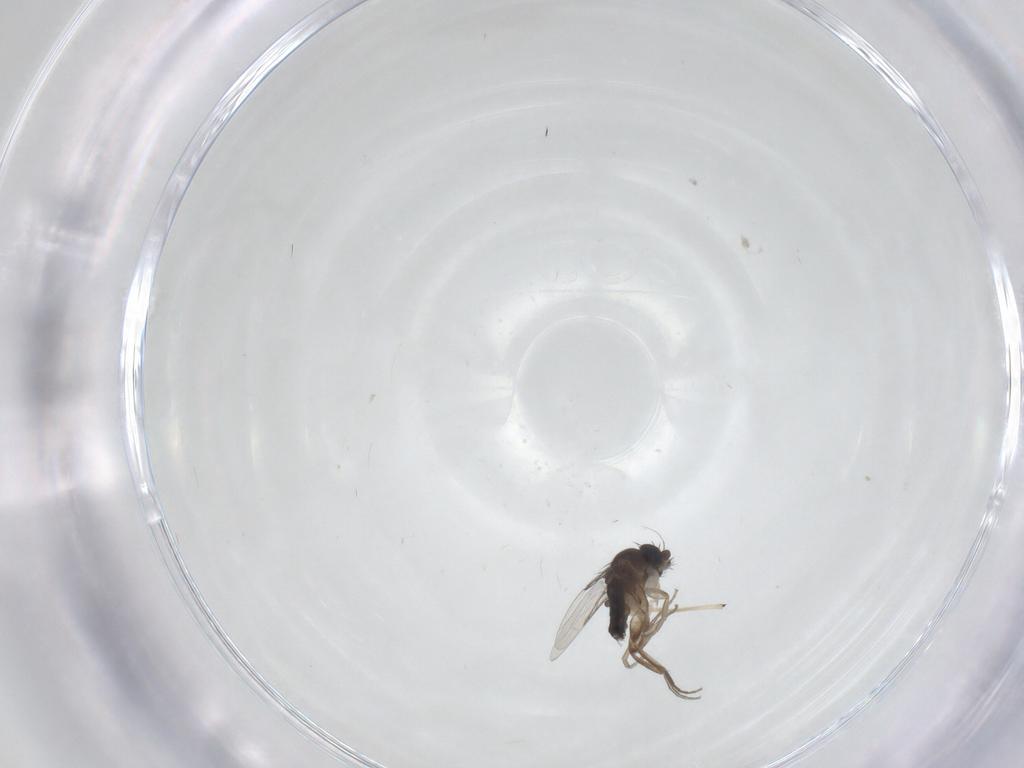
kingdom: Animalia
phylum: Arthropoda
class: Insecta
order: Diptera
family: Phoridae
